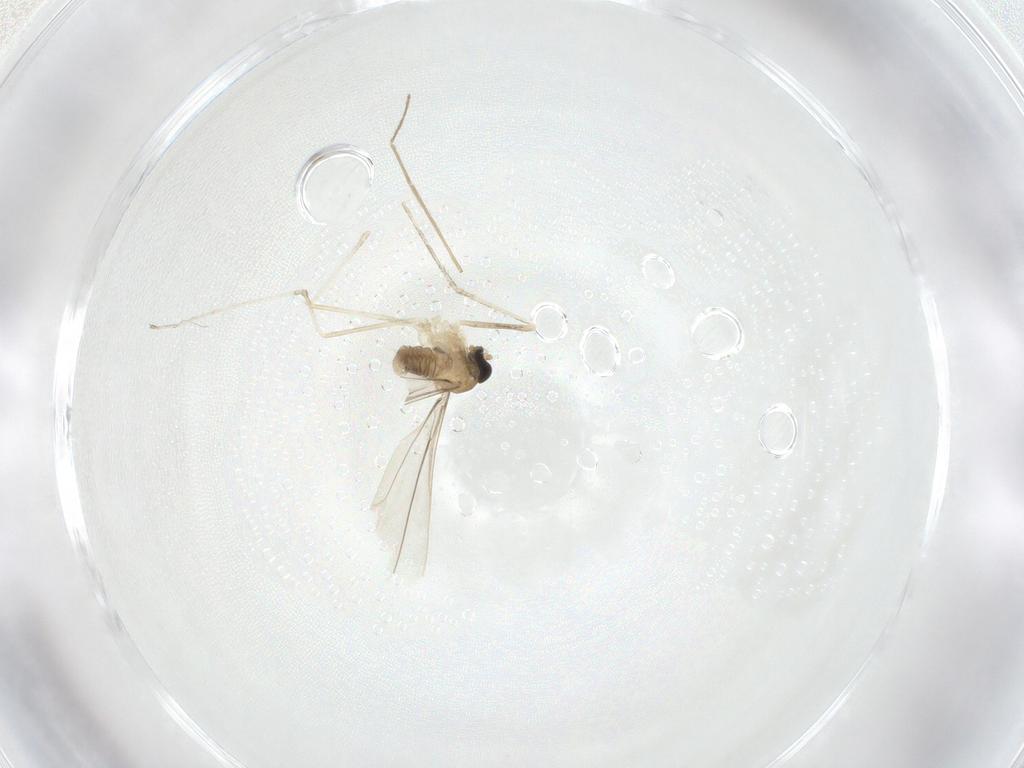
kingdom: Animalia
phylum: Arthropoda
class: Insecta
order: Diptera
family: Cecidomyiidae
